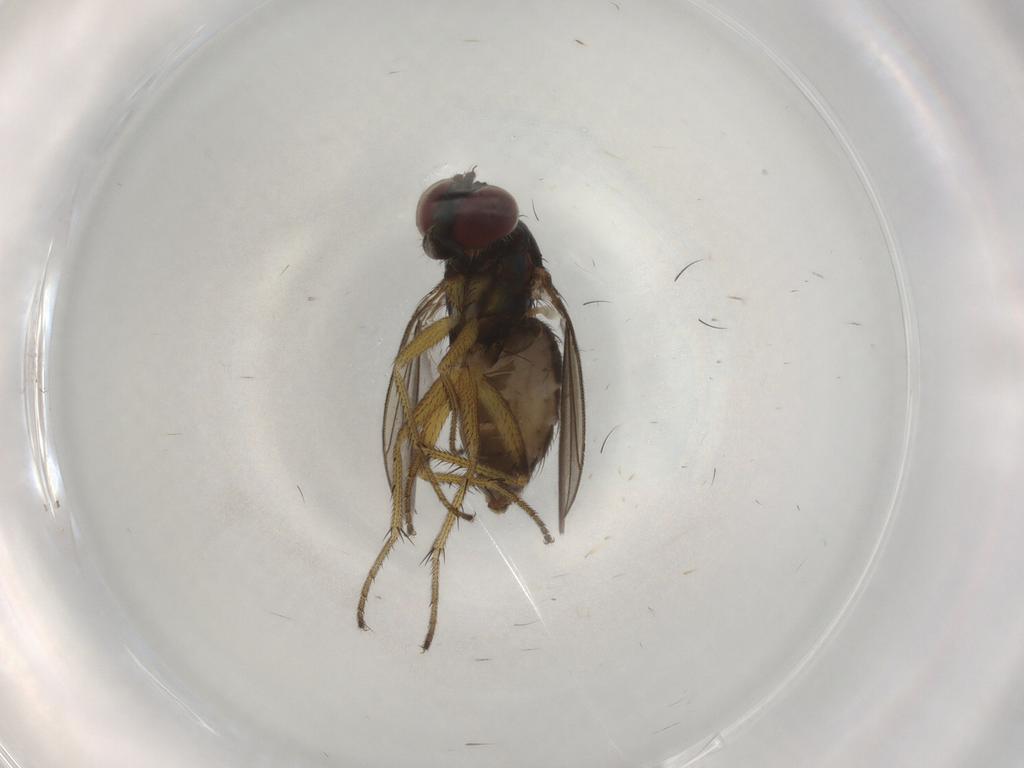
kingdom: Animalia
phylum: Arthropoda
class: Insecta
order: Diptera
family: Dolichopodidae
